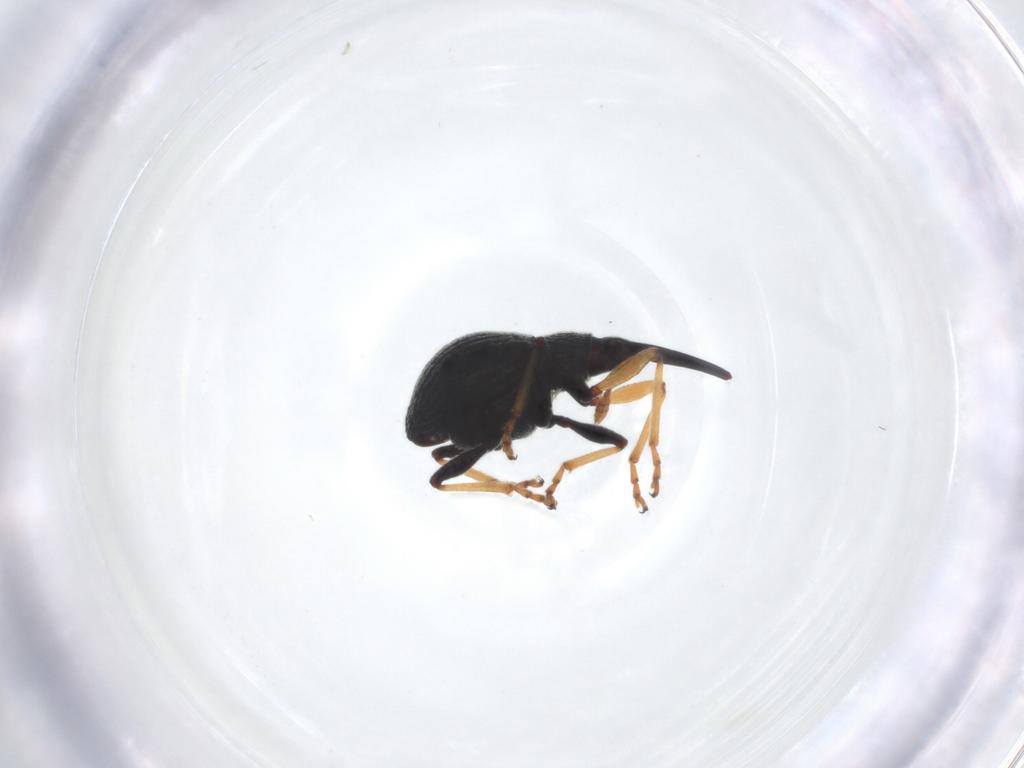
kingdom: Animalia
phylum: Arthropoda
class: Insecta
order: Coleoptera
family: Brentidae
